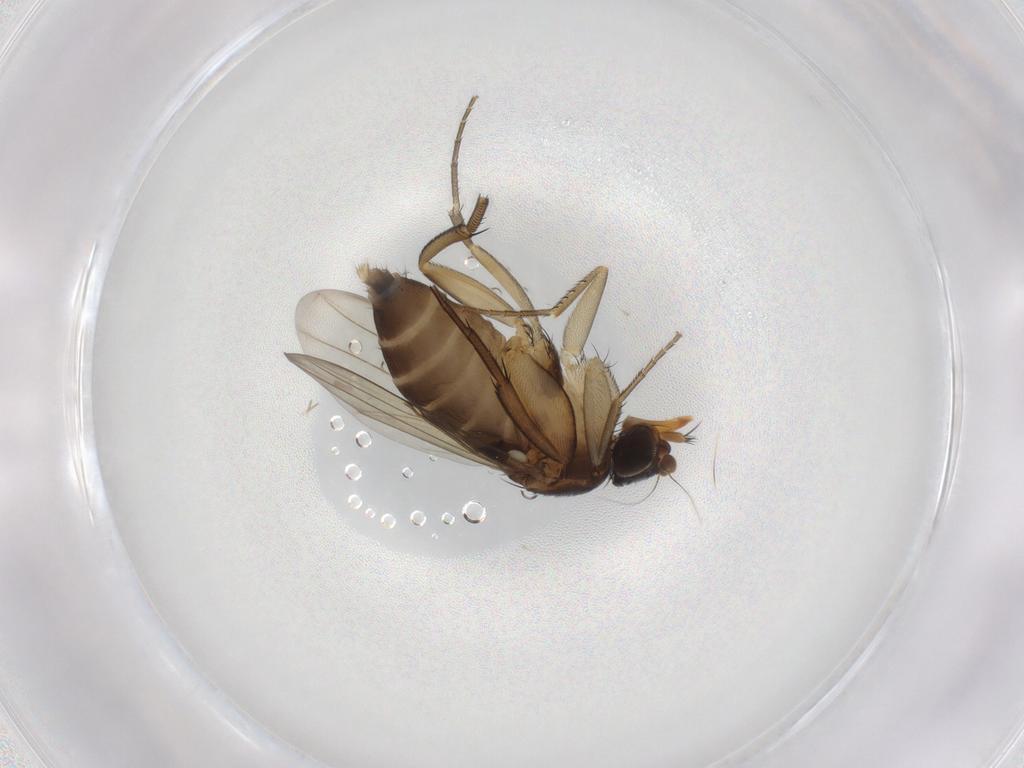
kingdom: Animalia
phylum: Arthropoda
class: Insecta
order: Diptera
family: Phoridae
